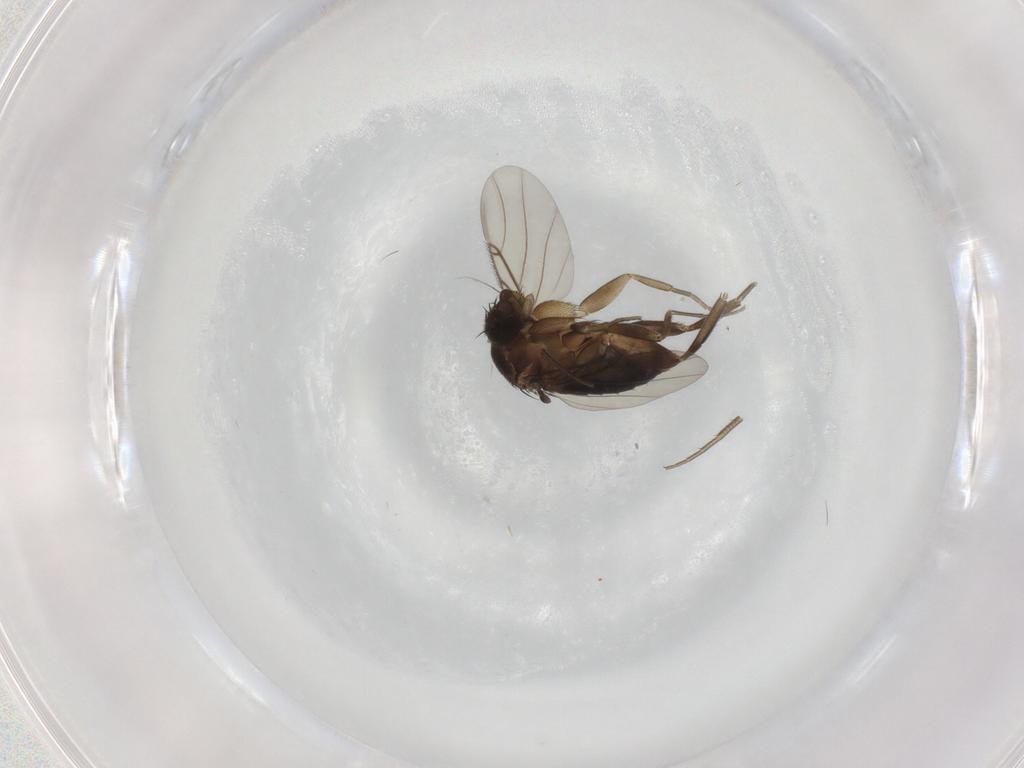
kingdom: Animalia
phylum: Arthropoda
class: Insecta
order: Diptera
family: Phoridae
